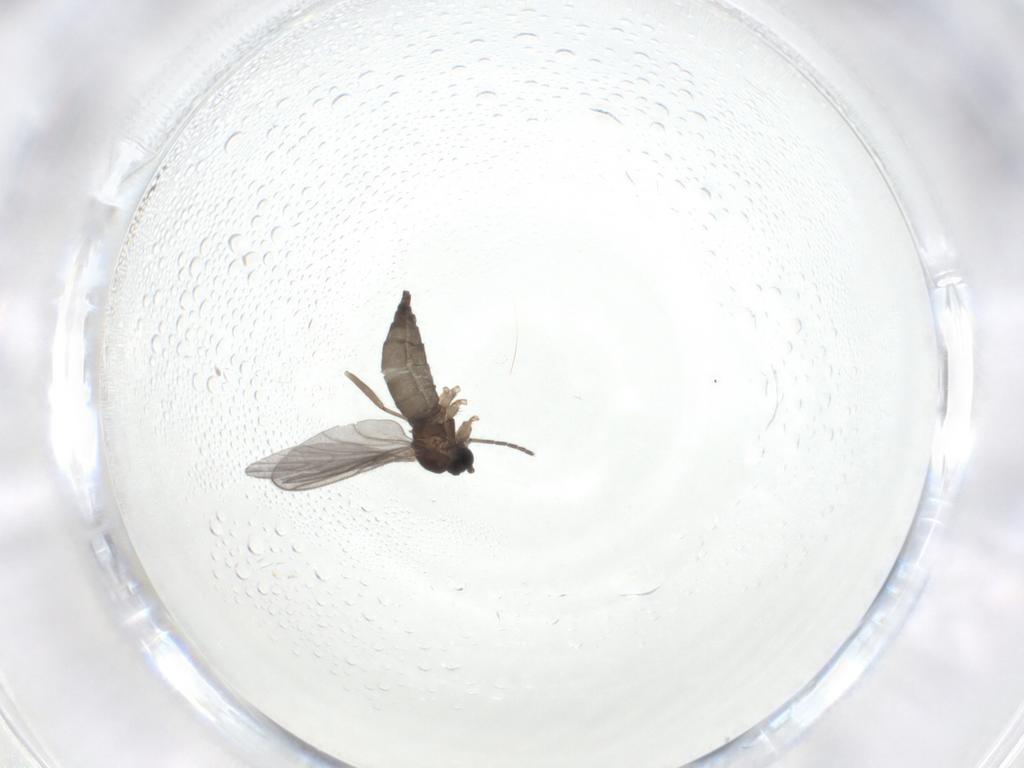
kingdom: Animalia
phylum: Arthropoda
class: Insecta
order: Diptera
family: Sciaridae
